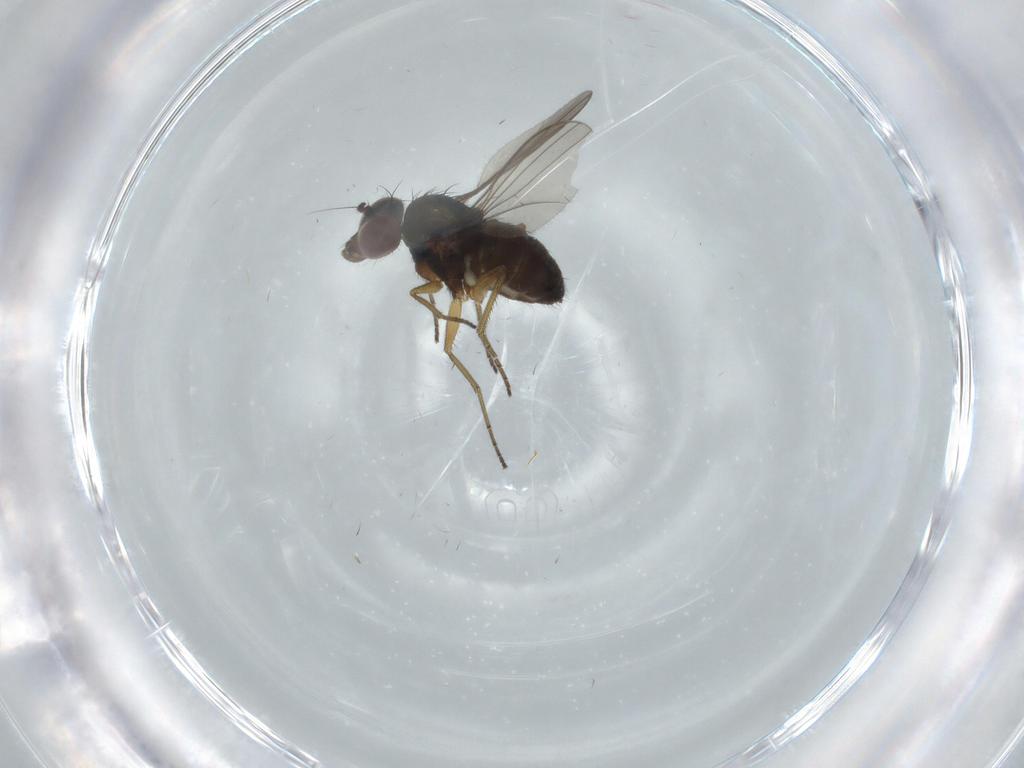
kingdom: Animalia
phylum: Arthropoda
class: Insecta
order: Diptera
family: Dolichopodidae
